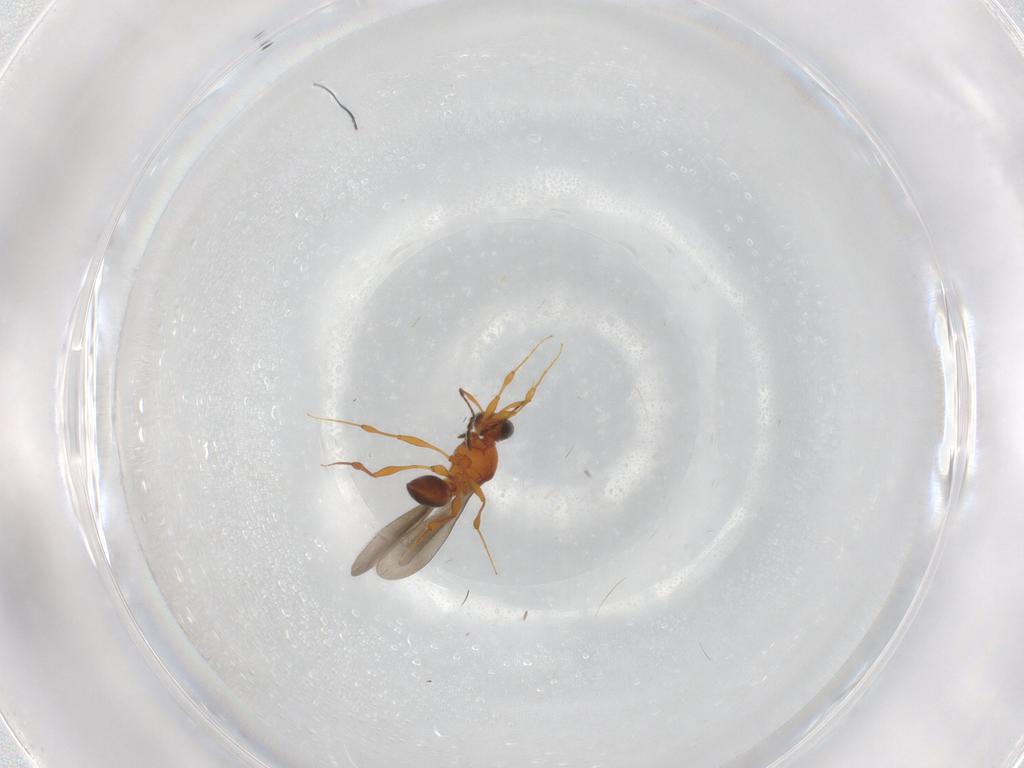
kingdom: Animalia
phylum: Arthropoda
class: Insecta
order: Hymenoptera
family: Platygastridae
